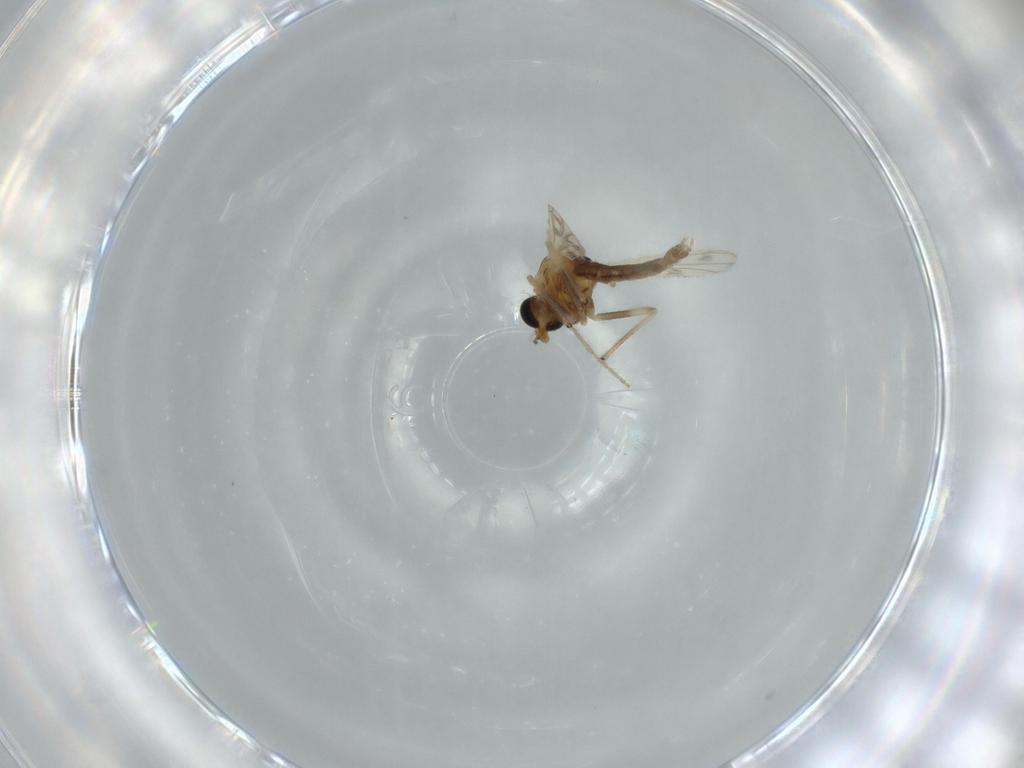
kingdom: Animalia
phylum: Arthropoda
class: Insecta
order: Diptera
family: Chironomidae
